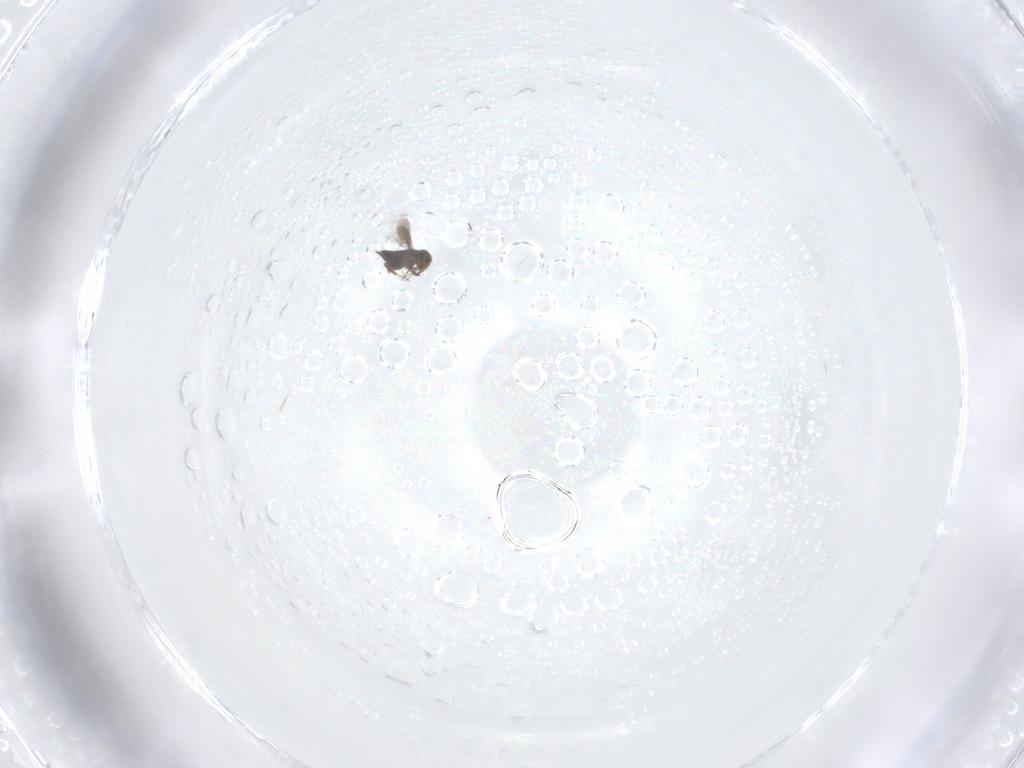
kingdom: Animalia
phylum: Arthropoda
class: Insecta
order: Hymenoptera
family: Signiphoridae
